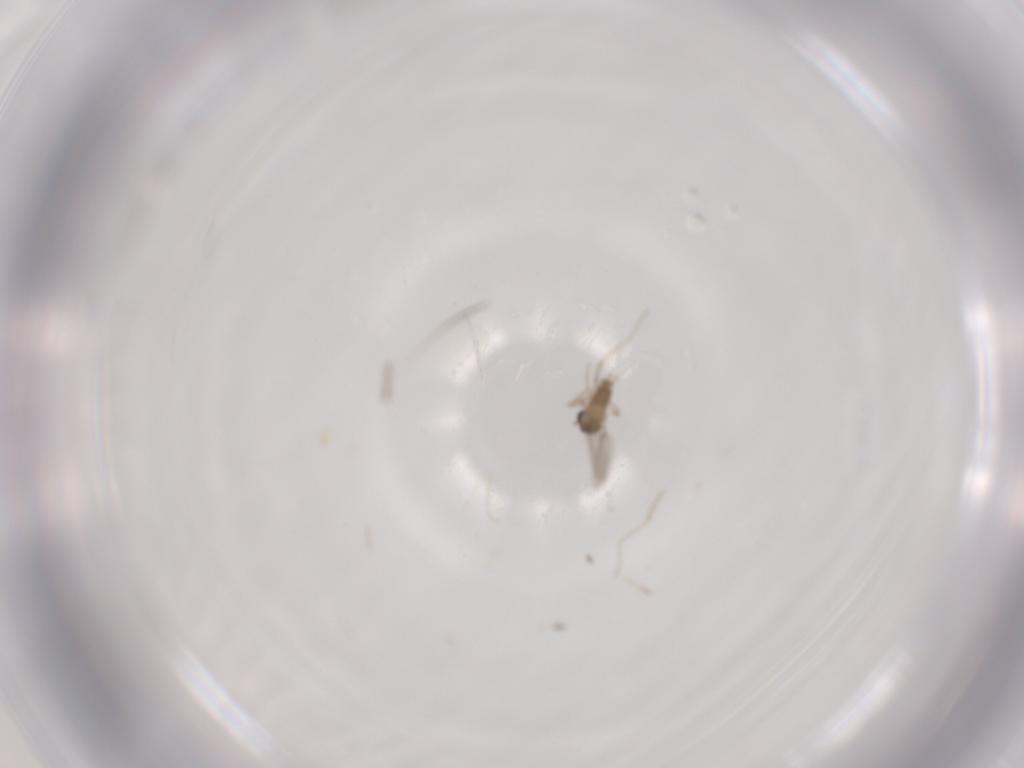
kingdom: Animalia
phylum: Arthropoda
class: Insecta
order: Diptera
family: Cecidomyiidae
